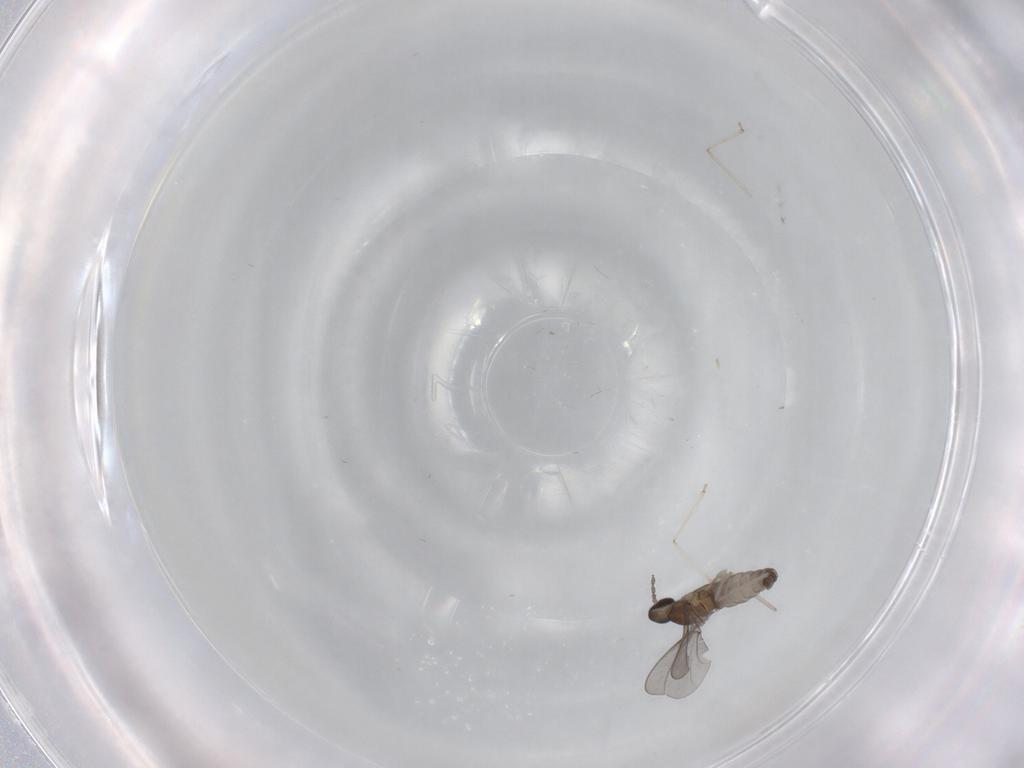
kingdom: Animalia
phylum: Arthropoda
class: Insecta
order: Diptera
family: Cecidomyiidae
